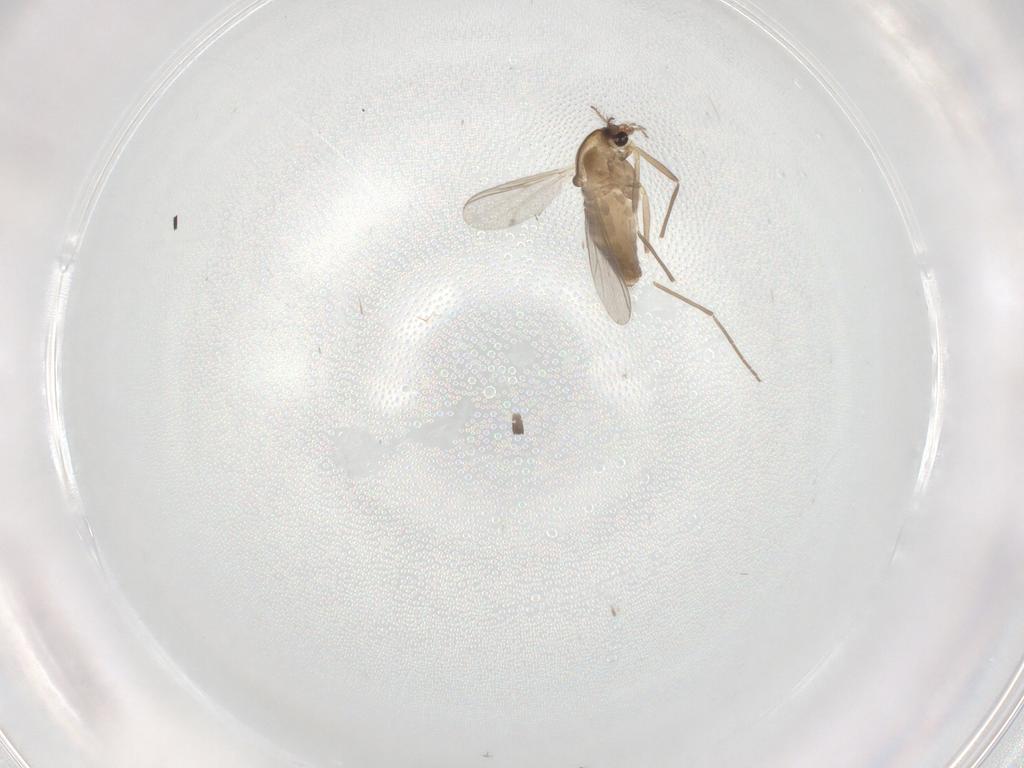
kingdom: Animalia
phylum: Arthropoda
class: Insecta
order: Diptera
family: Chironomidae
